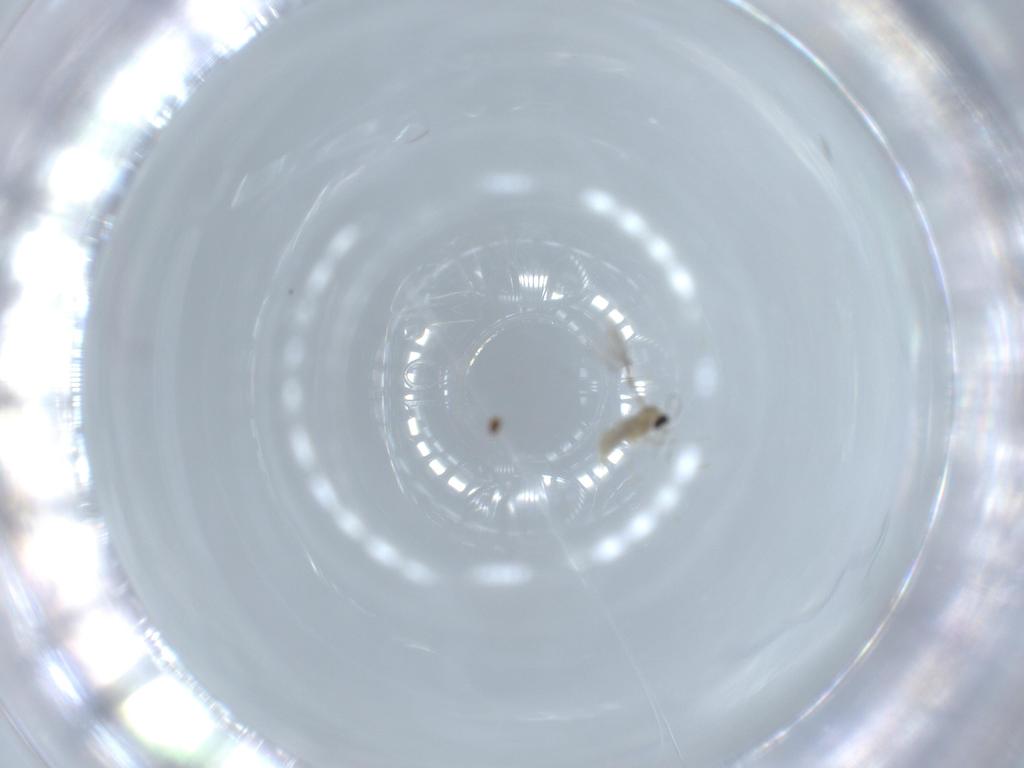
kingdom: Animalia
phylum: Arthropoda
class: Insecta
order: Diptera
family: Cecidomyiidae
